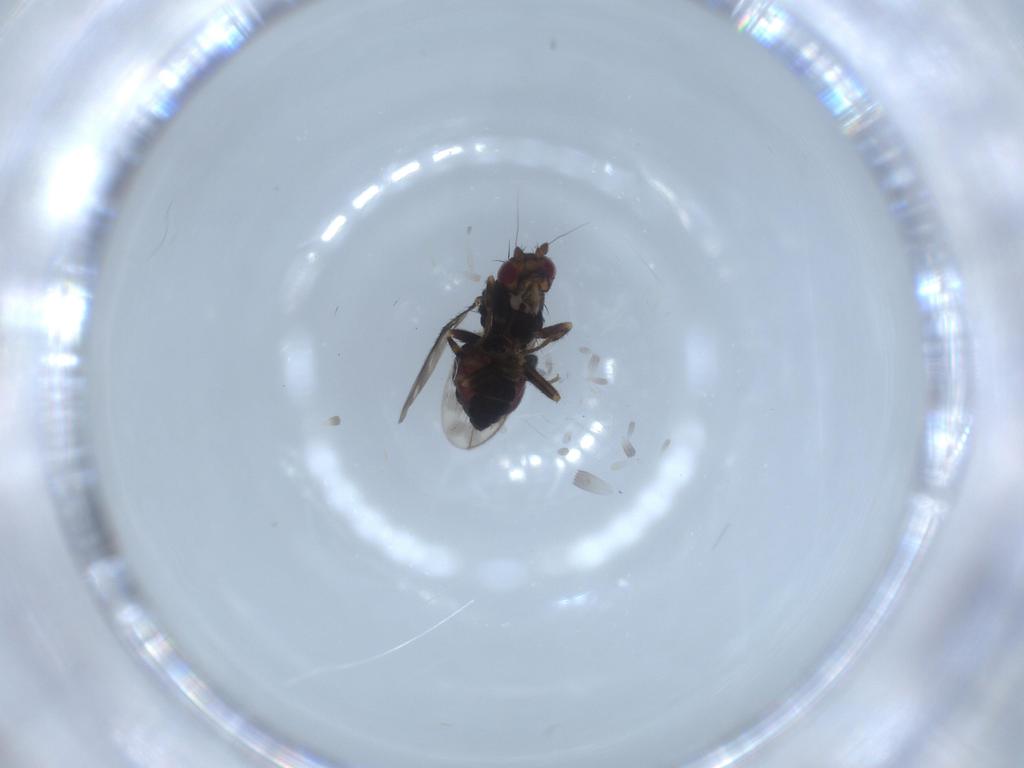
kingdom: Animalia
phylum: Arthropoda
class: Insecta
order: Diptera
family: Sphaeroceridae
